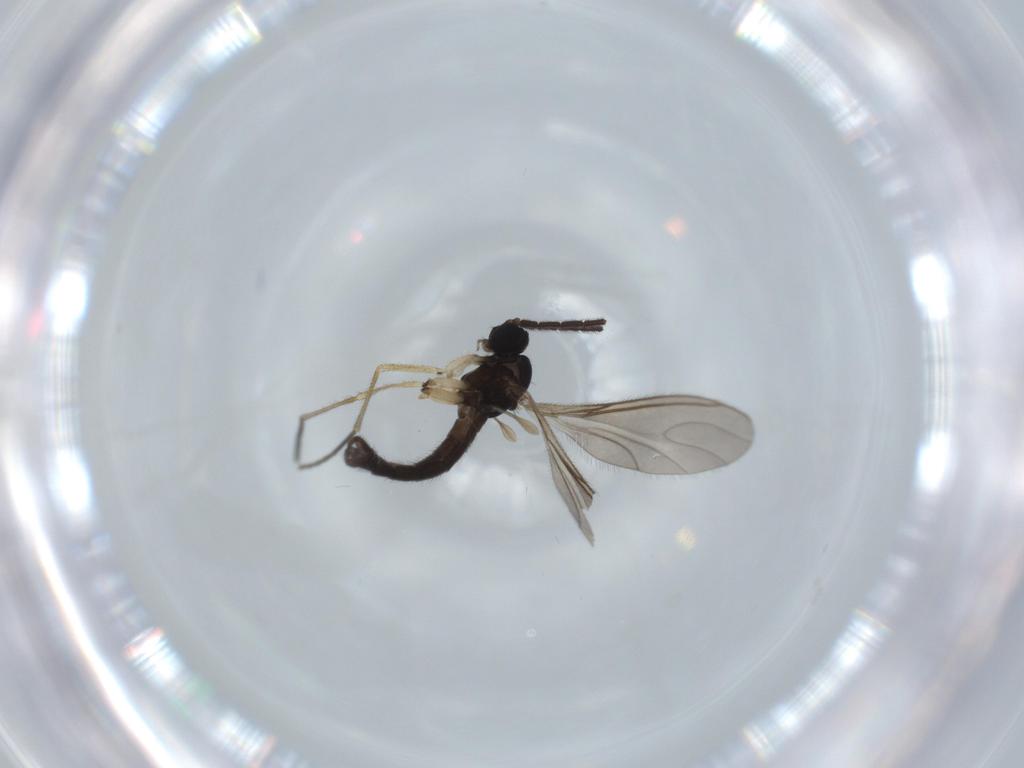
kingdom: Animalia
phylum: Arthropoda
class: Insecta
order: Diptera
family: Sciaridae
